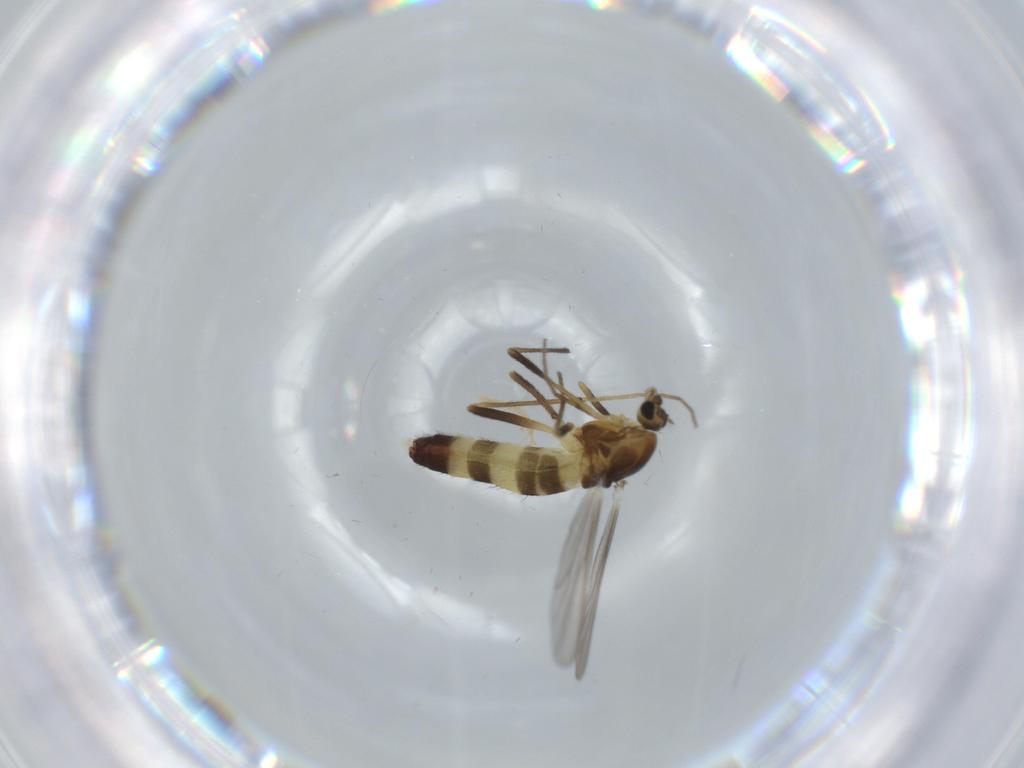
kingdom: Animalia
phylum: Arthropoda
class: Insecta
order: Diptera
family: Chironomidae
